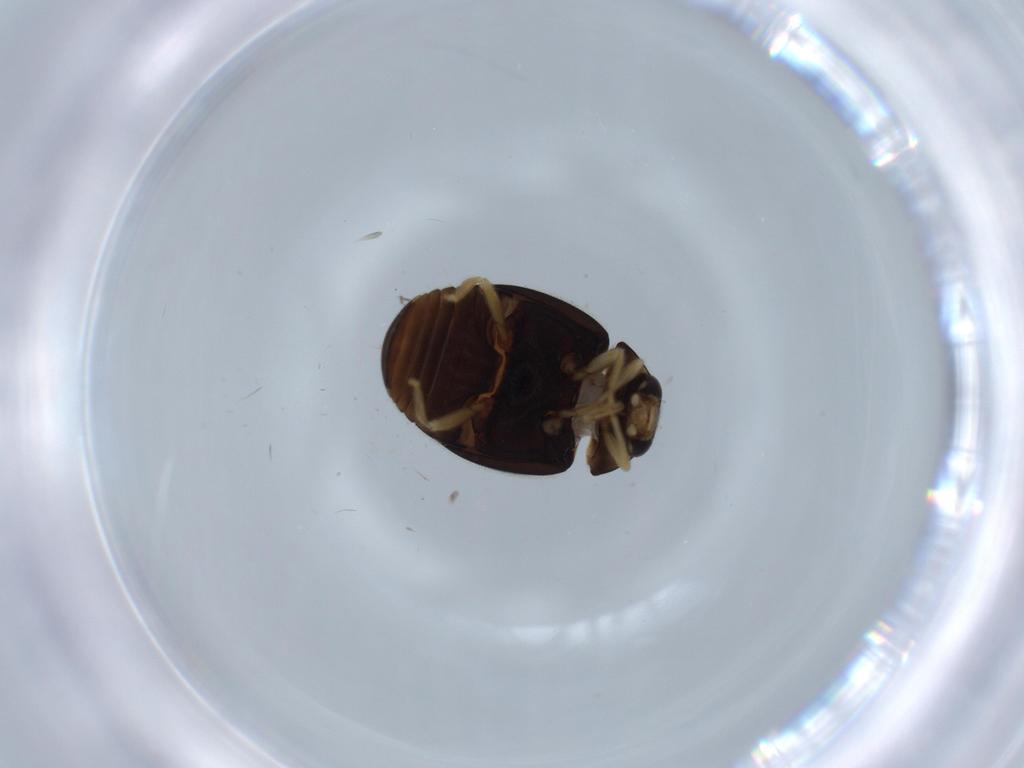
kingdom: Animalia
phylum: Arthropoda
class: Insecta
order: Coleoptera
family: Coccinellidae
